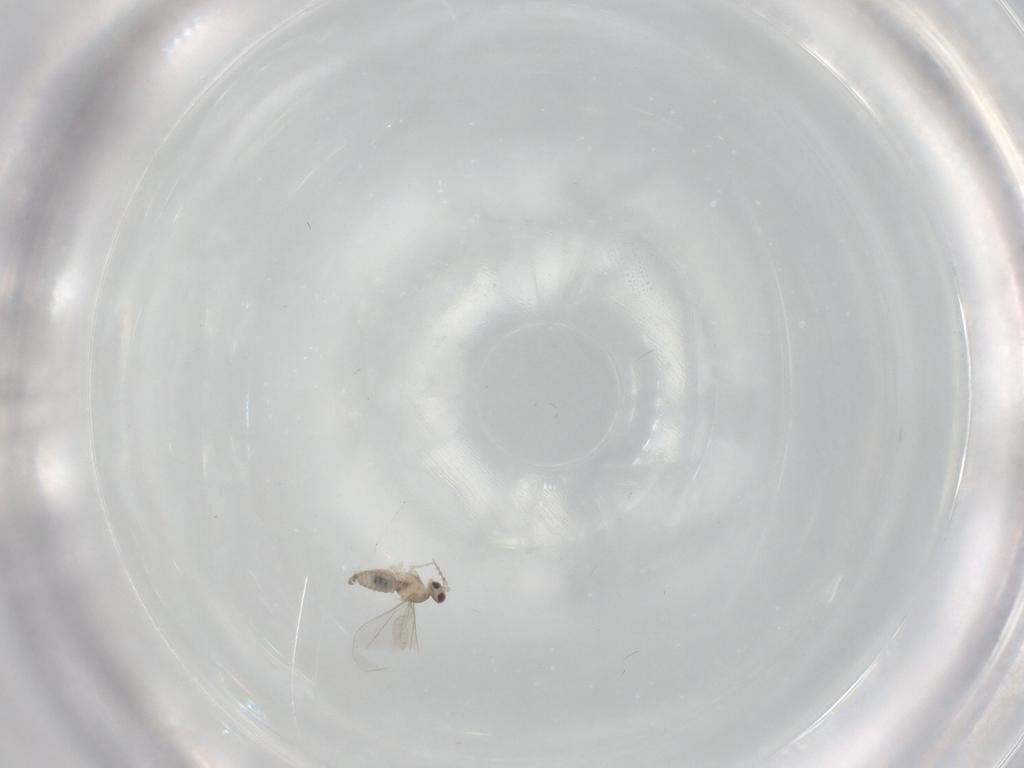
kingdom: Animalia
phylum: Arthropoda
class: Insecta
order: Diptera
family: Cecidomyiidae
